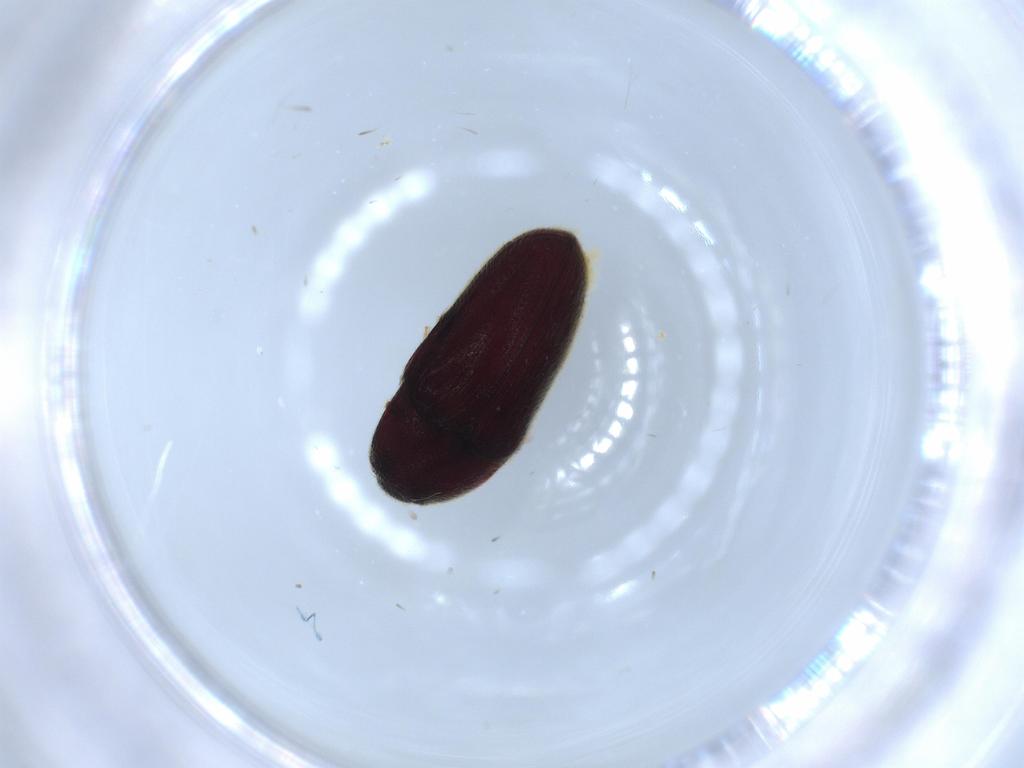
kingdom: Animalia
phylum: Arthropoda
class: Insecta
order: Coleoptera
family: Throscidae
